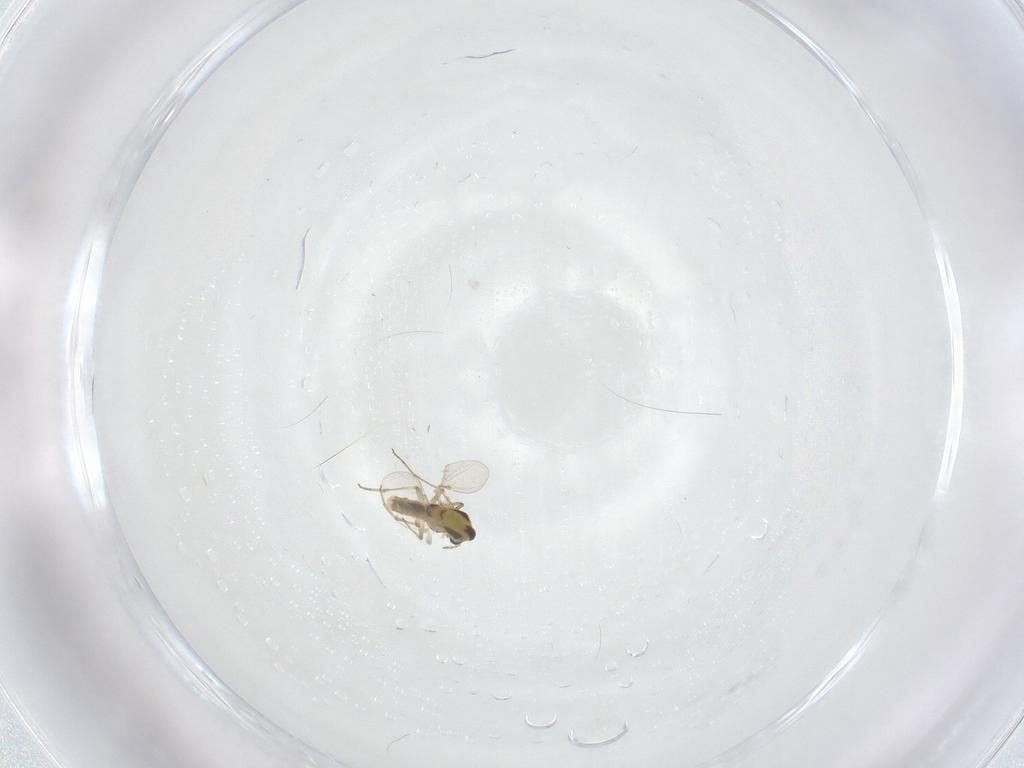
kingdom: Animalia
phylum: Arthropoda
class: Insecta
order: Diptera
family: Chironomidae
